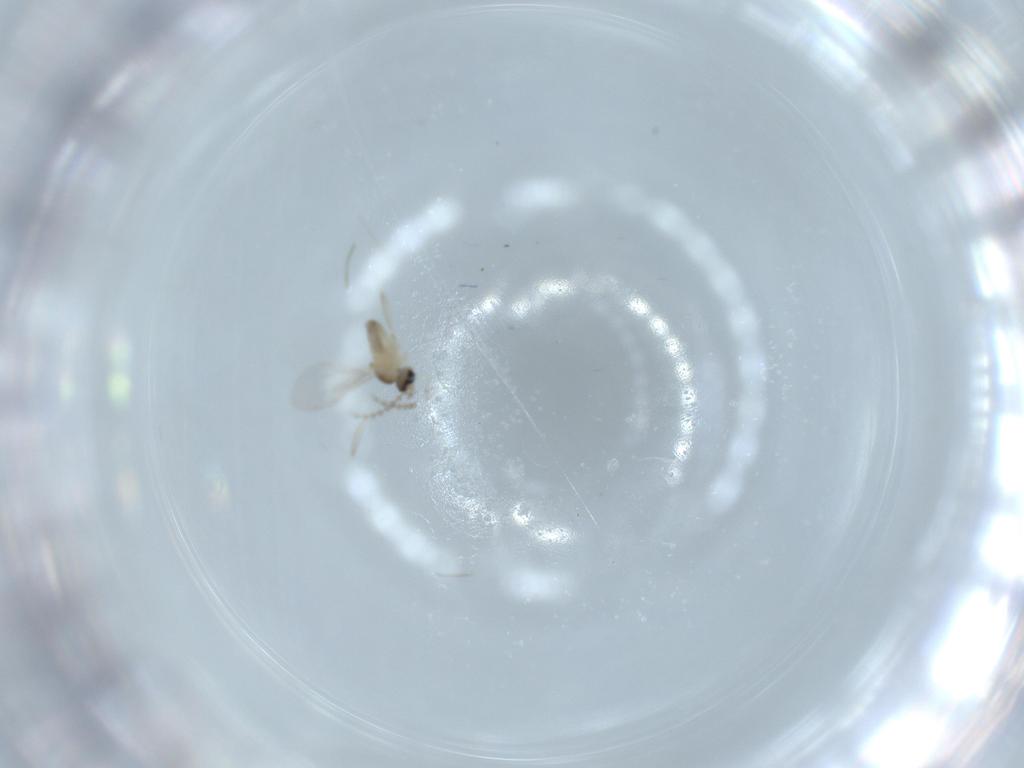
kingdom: Animalia
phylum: Arthropoda
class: Insecta
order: Diptera
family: Cecidomyiidae
